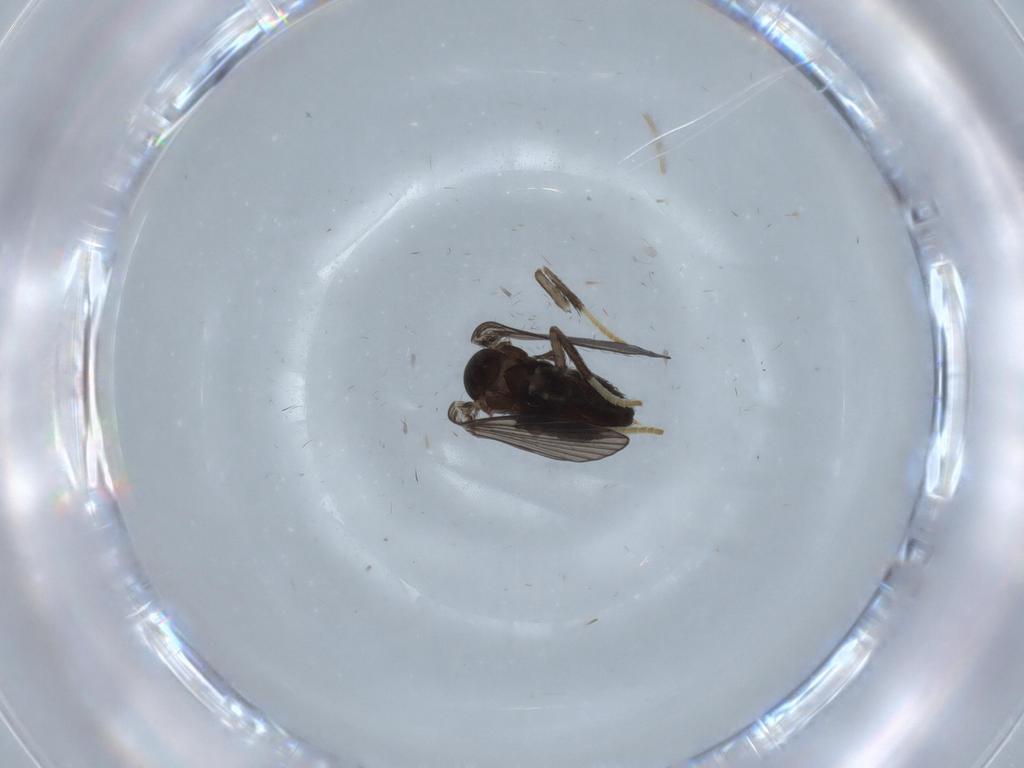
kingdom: Animalia
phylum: Arthropoda
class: Insecta
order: Diptera
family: Psychodidae
